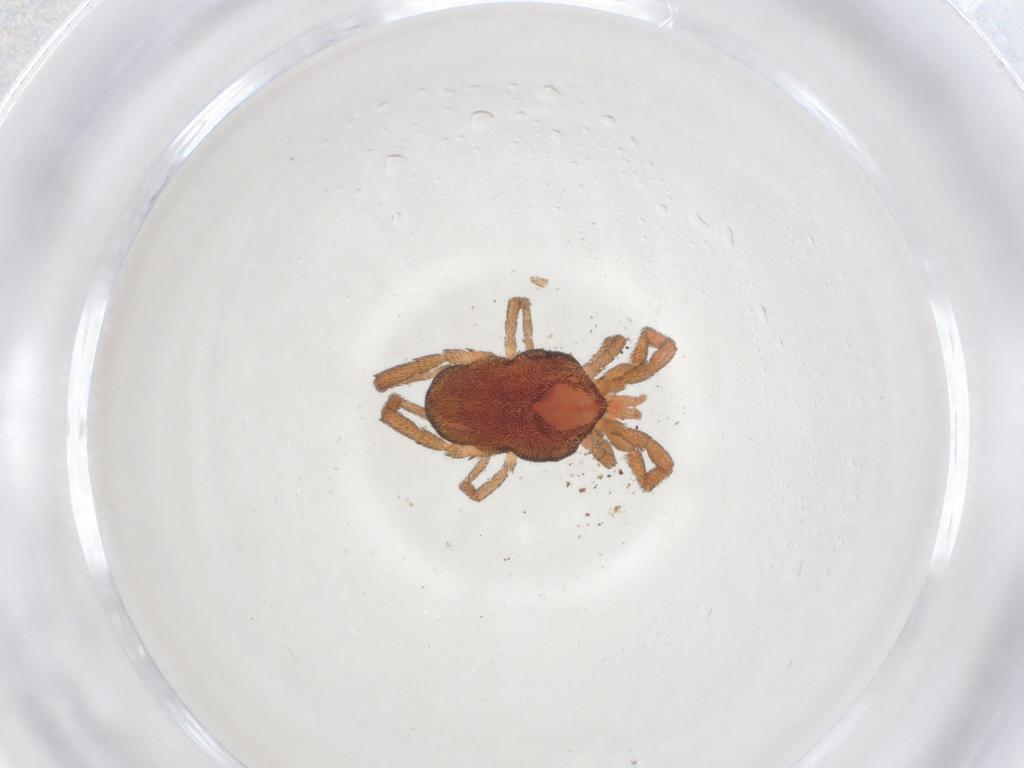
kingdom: Animalia
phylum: Arthropoda
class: Arachnida
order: Trombidiformes
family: Erythraeidae
